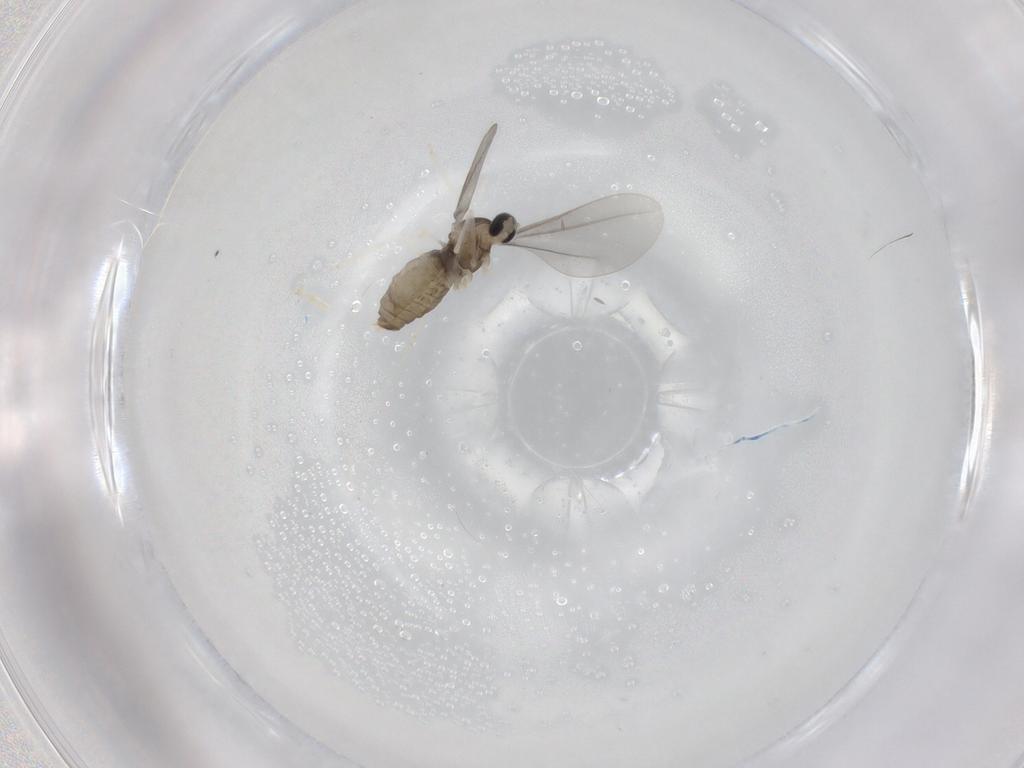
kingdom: Animalia
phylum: Arthropoda
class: Insecta
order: Diptera
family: Cecidomyiidae
